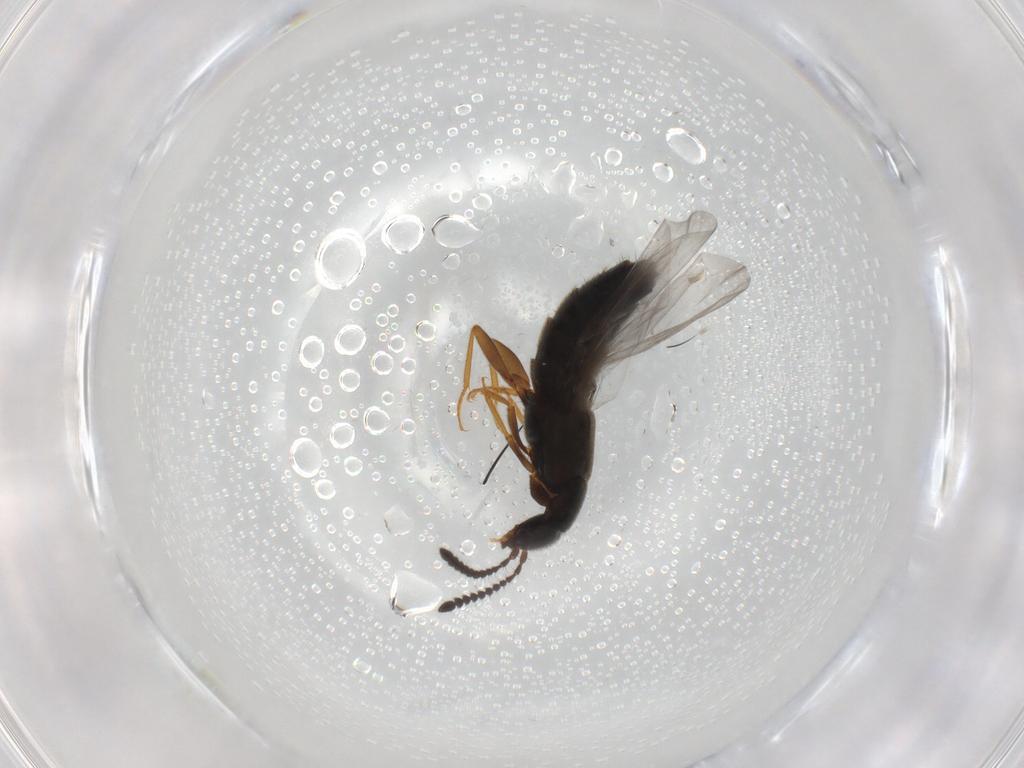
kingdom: Animalia
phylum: Arthropoda
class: Insecta
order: Coleoptera
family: Staphylinidae
